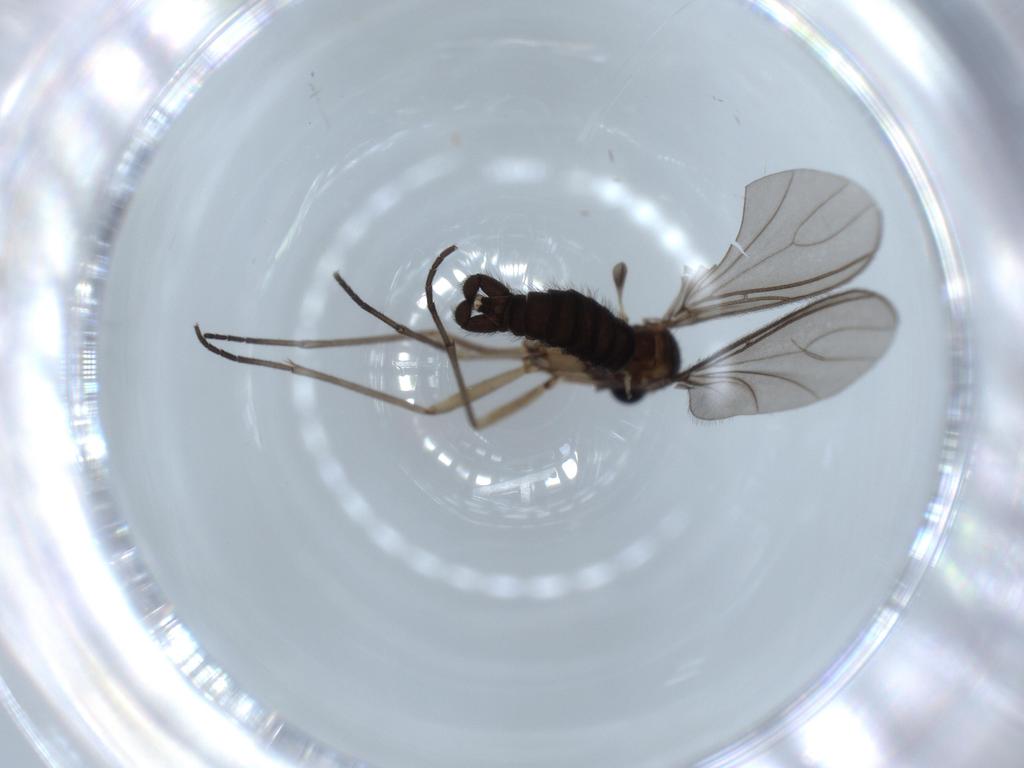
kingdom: Animalia
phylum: Arthropoda
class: Insecta
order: Diptera
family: Sciaridae
